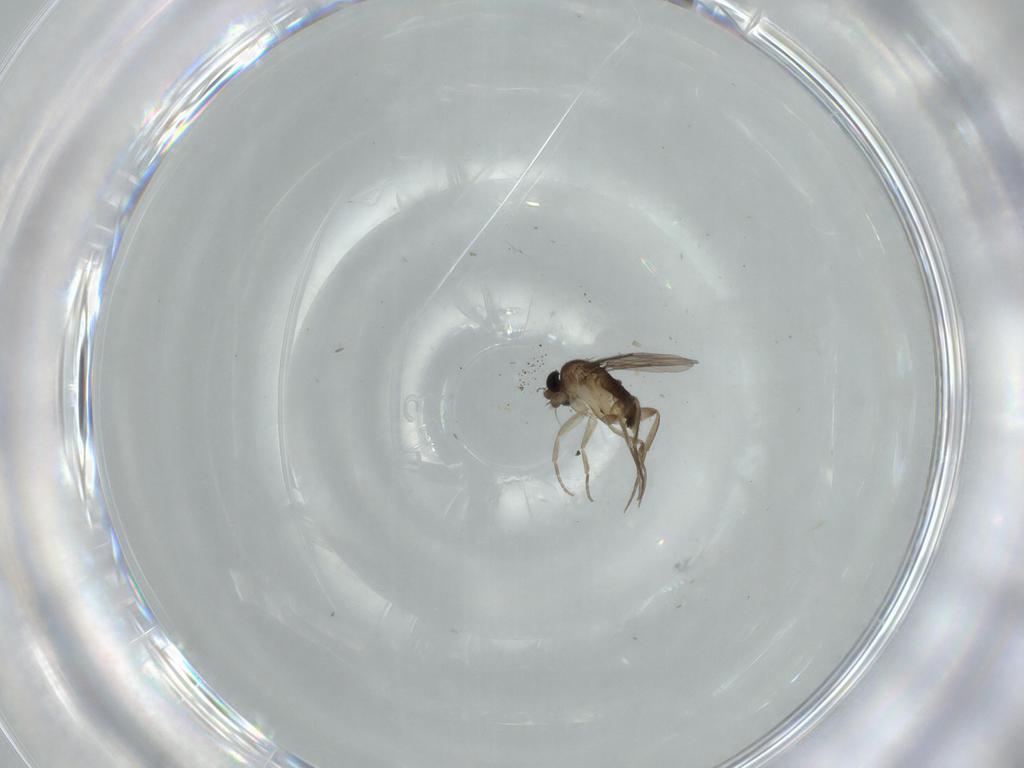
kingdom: Animalia
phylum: Arthropoda
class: Insecta
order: Diptera
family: Phoridae
